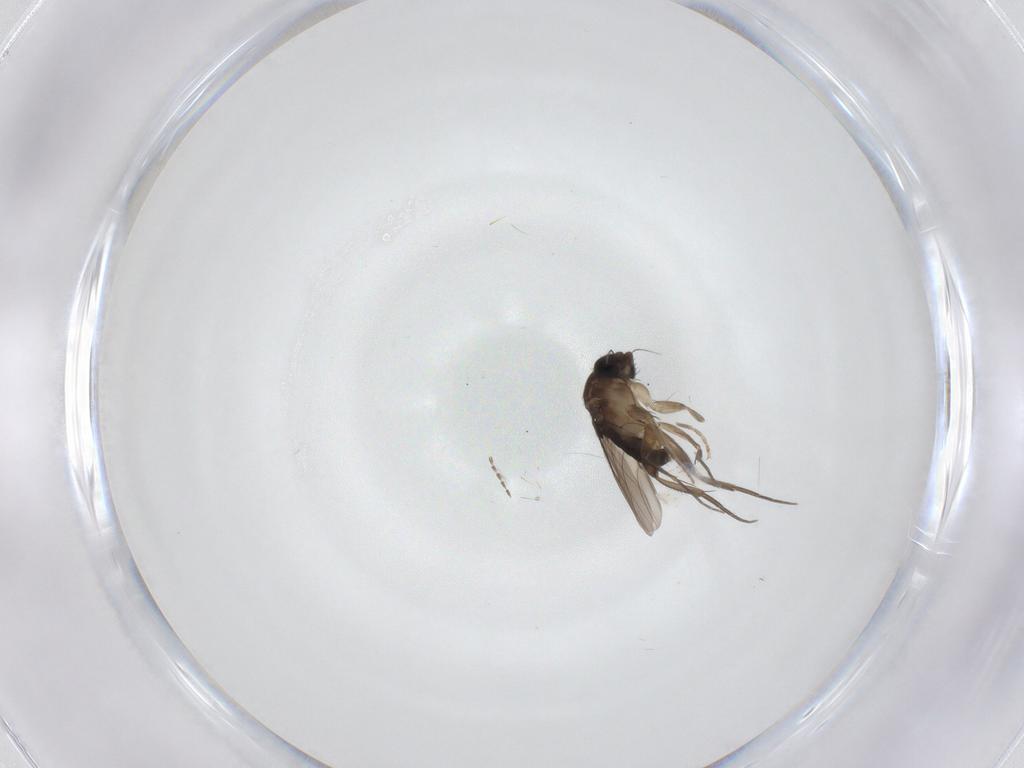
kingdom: Animalia
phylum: Arthropoda
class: Insecta
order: Diptera
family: Phoridae
